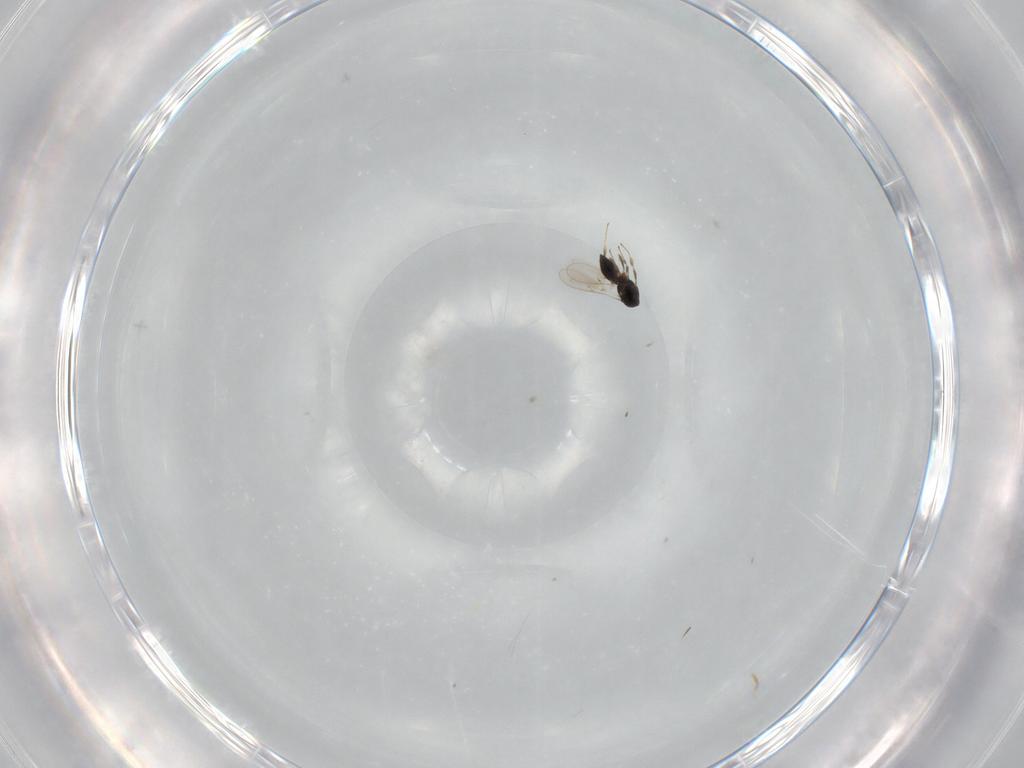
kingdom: Animalia
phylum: Arthropoda
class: Insecta
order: Hymenoptera
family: Scelionidae
